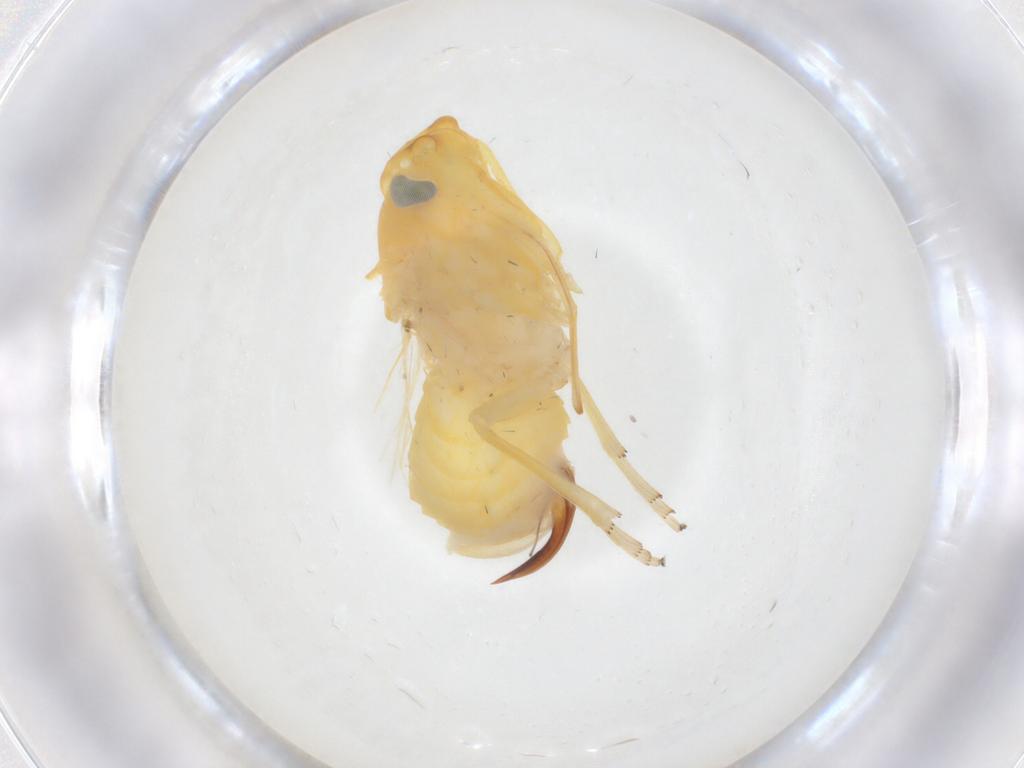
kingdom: Animalia
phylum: Arthropoda
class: Insecta
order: Hemiptera
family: Cixiidae
